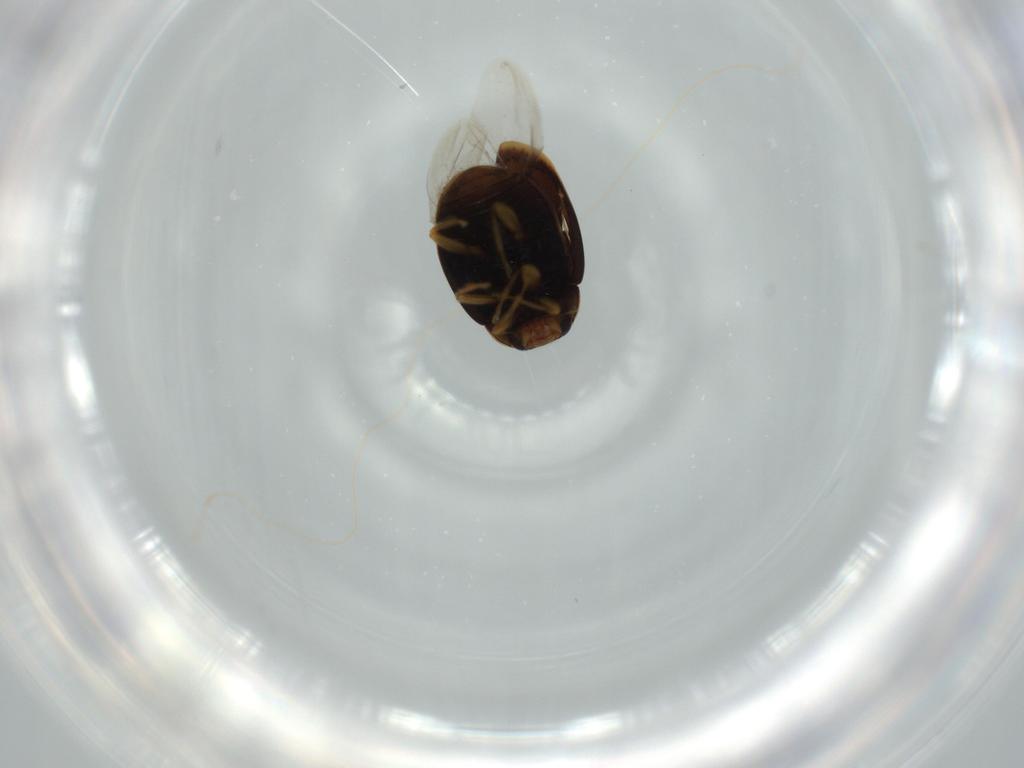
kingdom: Animalia
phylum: Arthropoda
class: Insecta
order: Coleoptera
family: Coccinellidae
